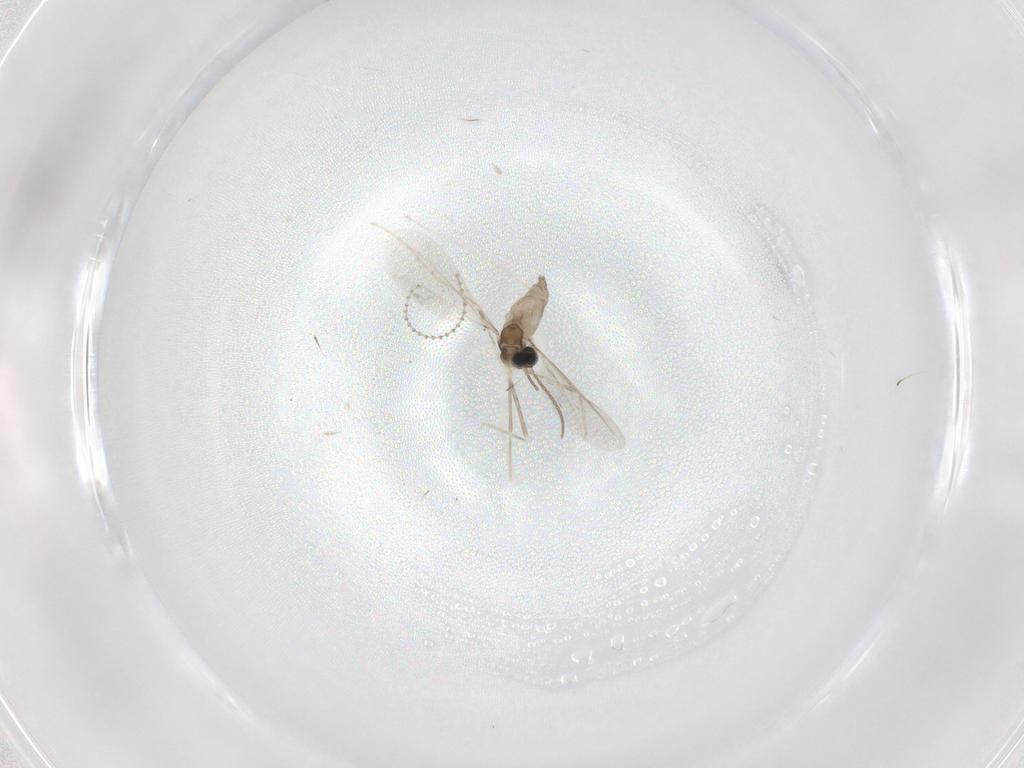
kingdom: Animalia
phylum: Arthropoda
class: Insecta
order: Diptera
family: Cecidomyiidae
